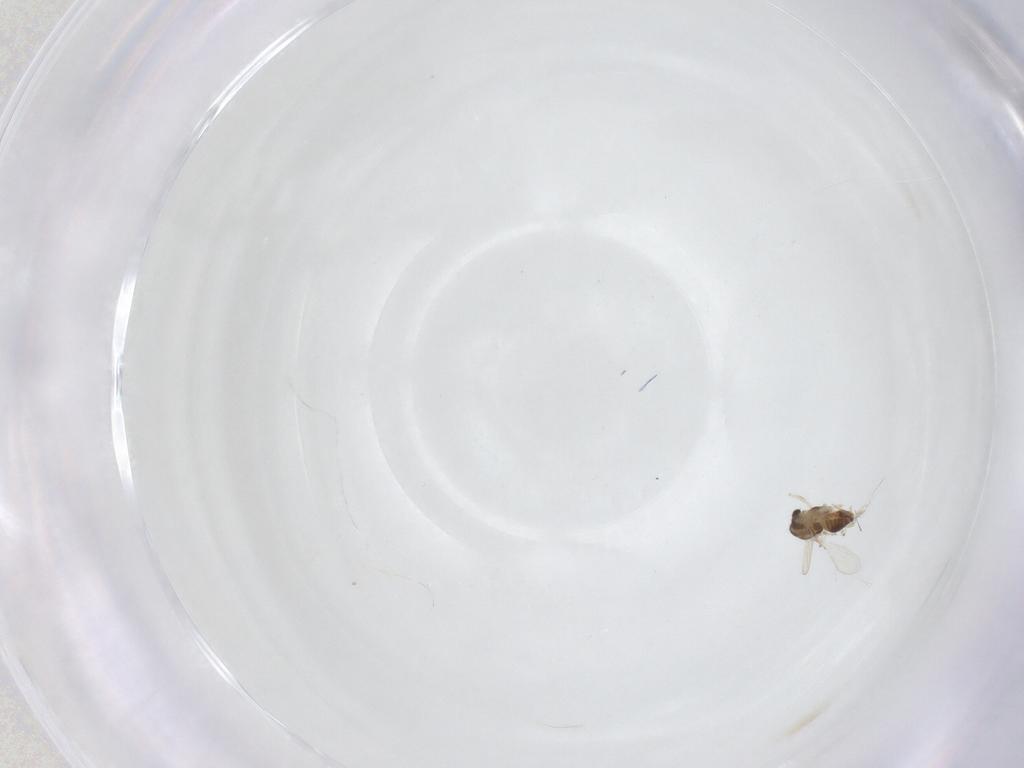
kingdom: Animalia
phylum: Arthropoda
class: Insecta
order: Diptera
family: Chironomidae
